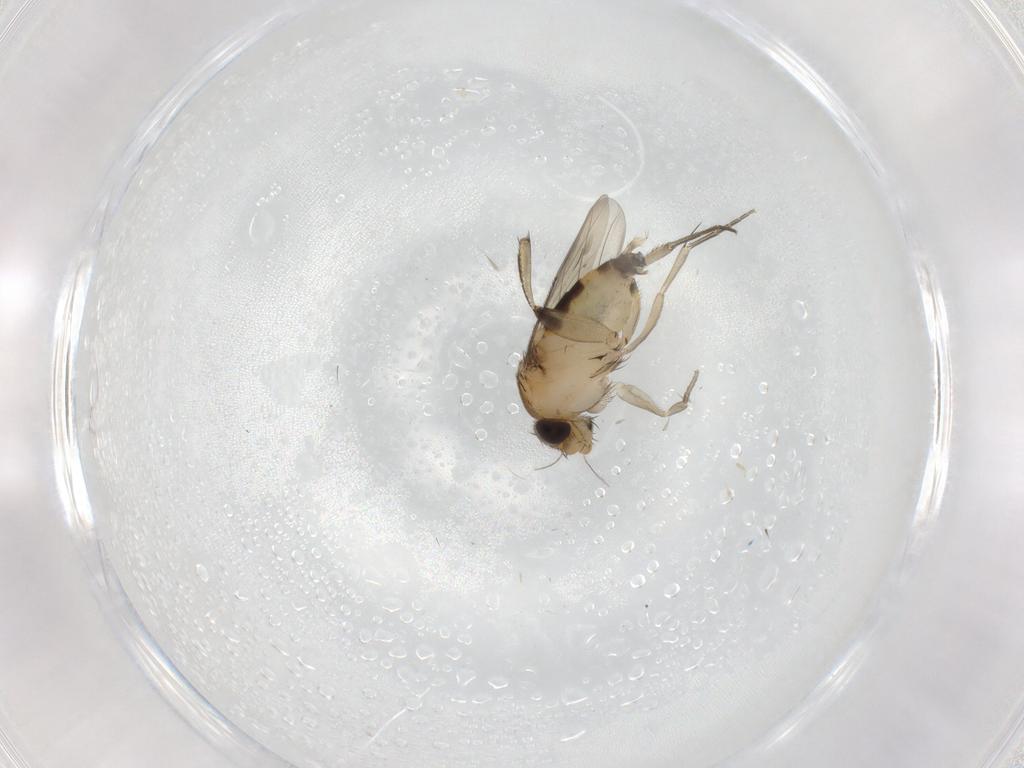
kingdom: Animalia
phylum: Arthropoda
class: Insecta
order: Diptera
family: Phoridae
